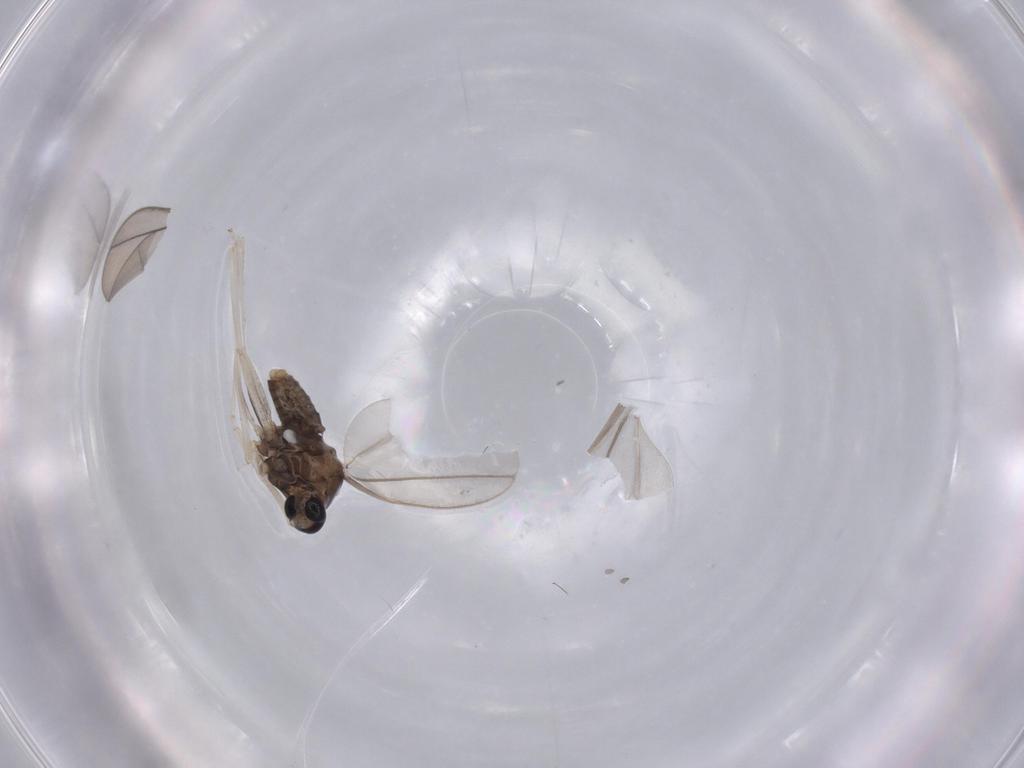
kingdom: Animalia
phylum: Arthropoda
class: Insecta
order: Diptera
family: Cecidomyiidae
